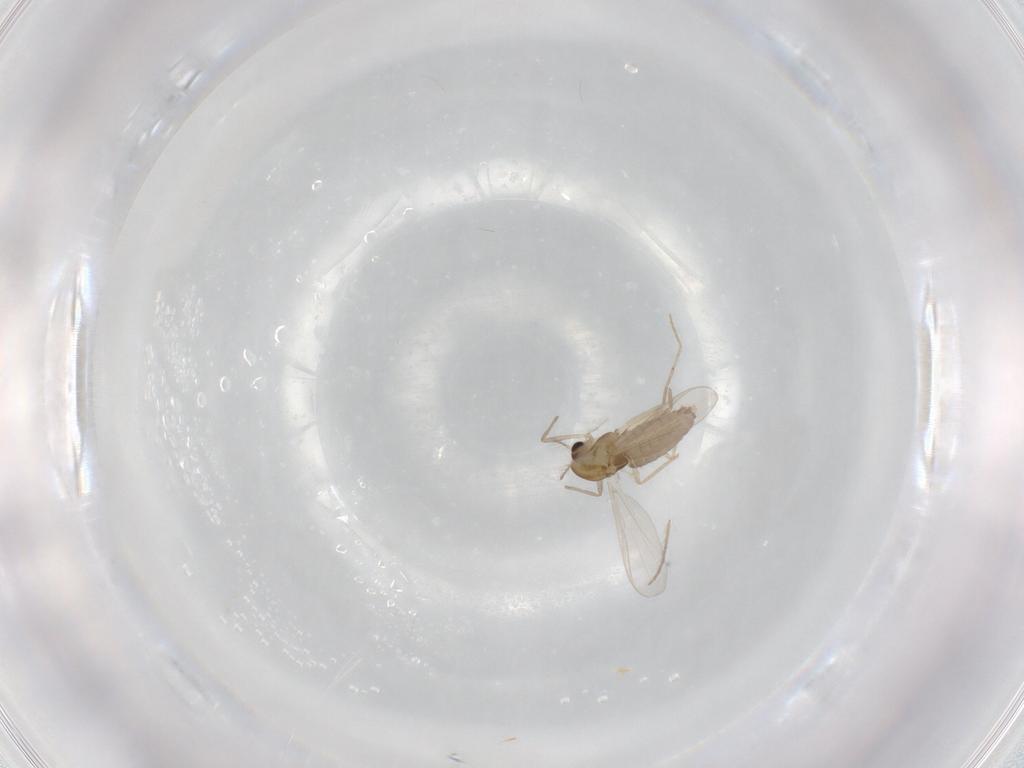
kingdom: Animalia
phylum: Arthropoda
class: Insecta
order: Diptera
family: Chironomidae
